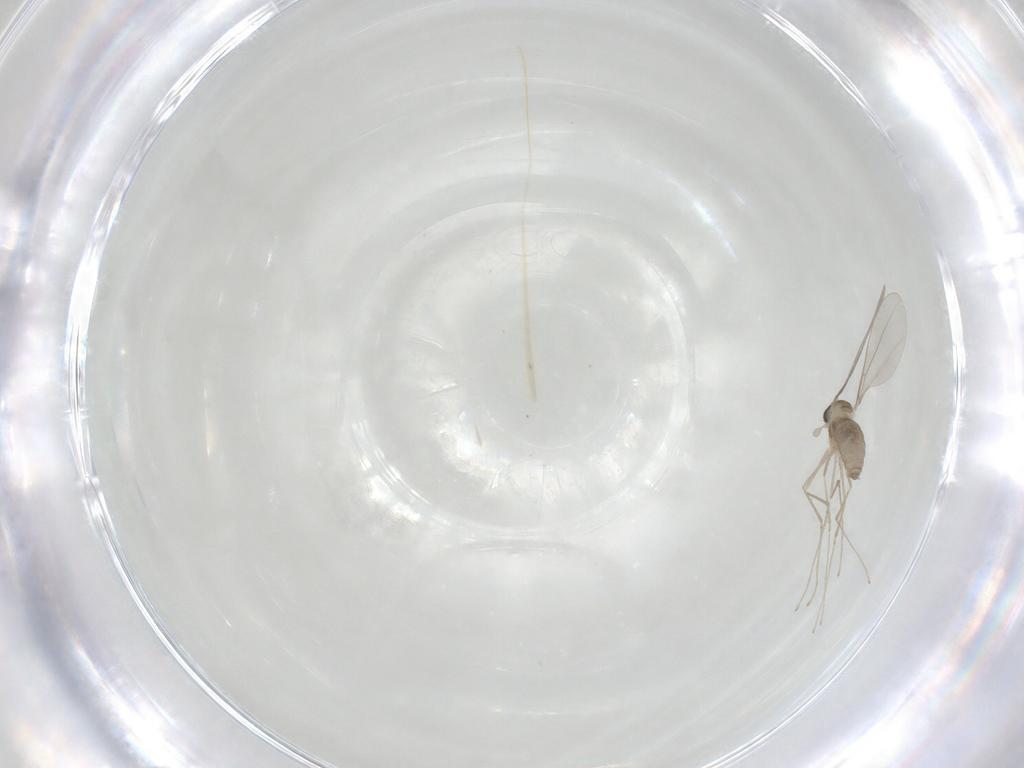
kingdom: Animalia
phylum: Arthropoda
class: Insecta
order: Diptera
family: Cecidomyiidae
